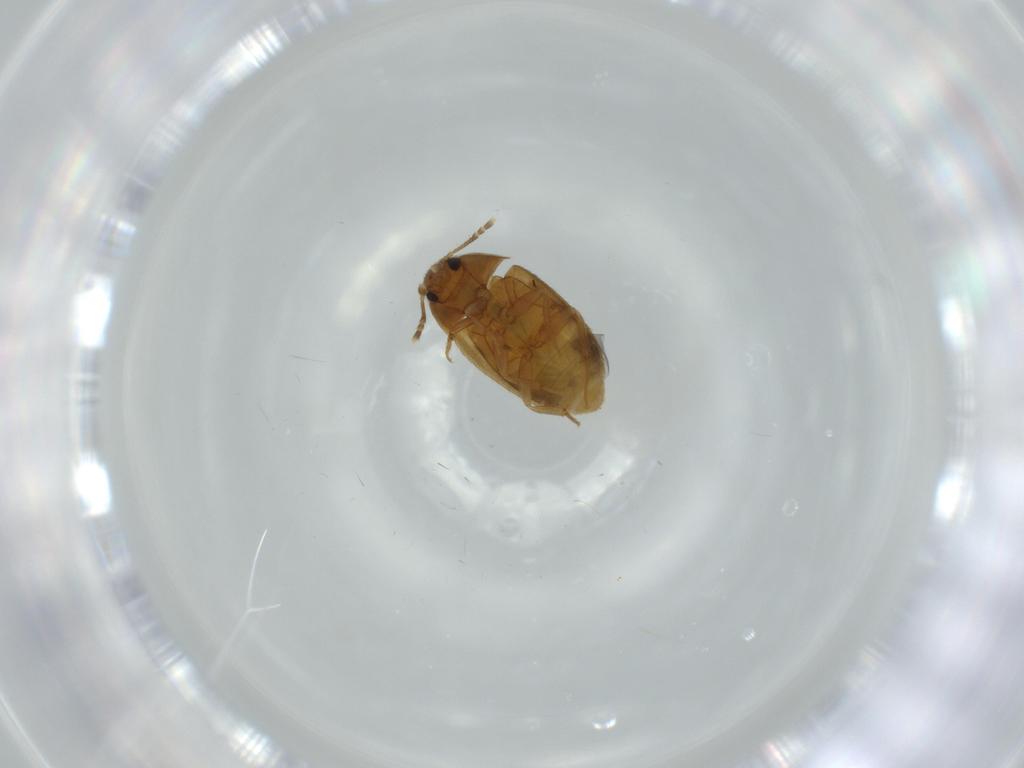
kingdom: Animalia
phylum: Arthropoda
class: Insecta
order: Coleoptera
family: Mycetophagidae
